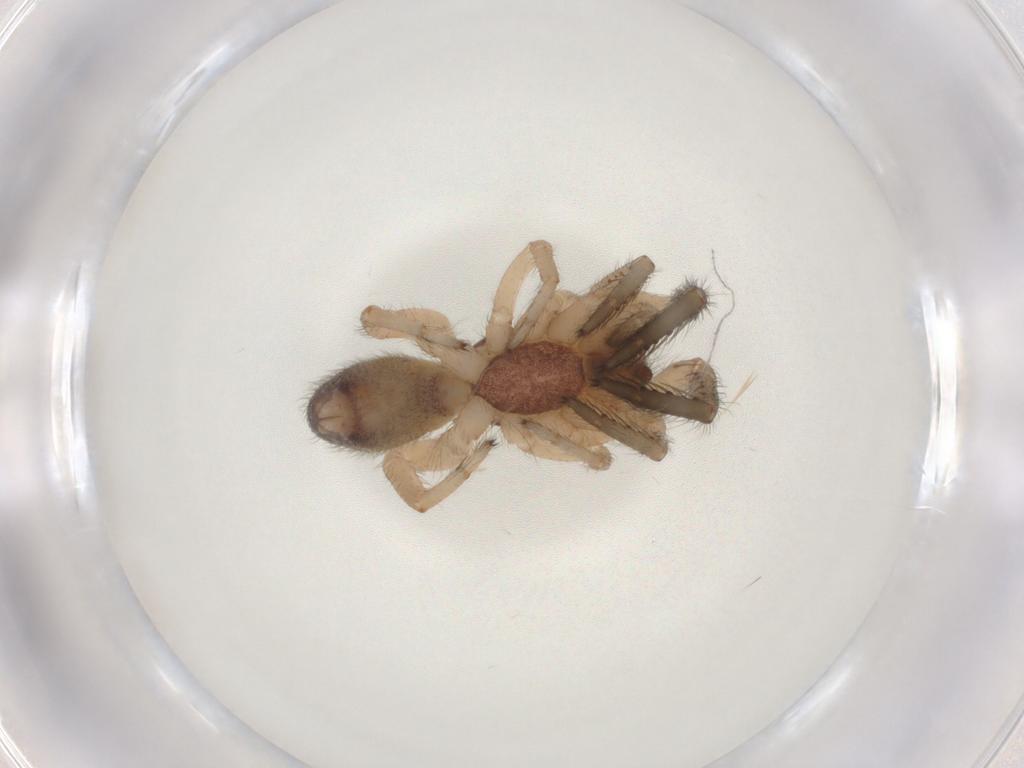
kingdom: Animalia
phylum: Arthropoda
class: Arachnida
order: Araneae
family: Segestriidae
